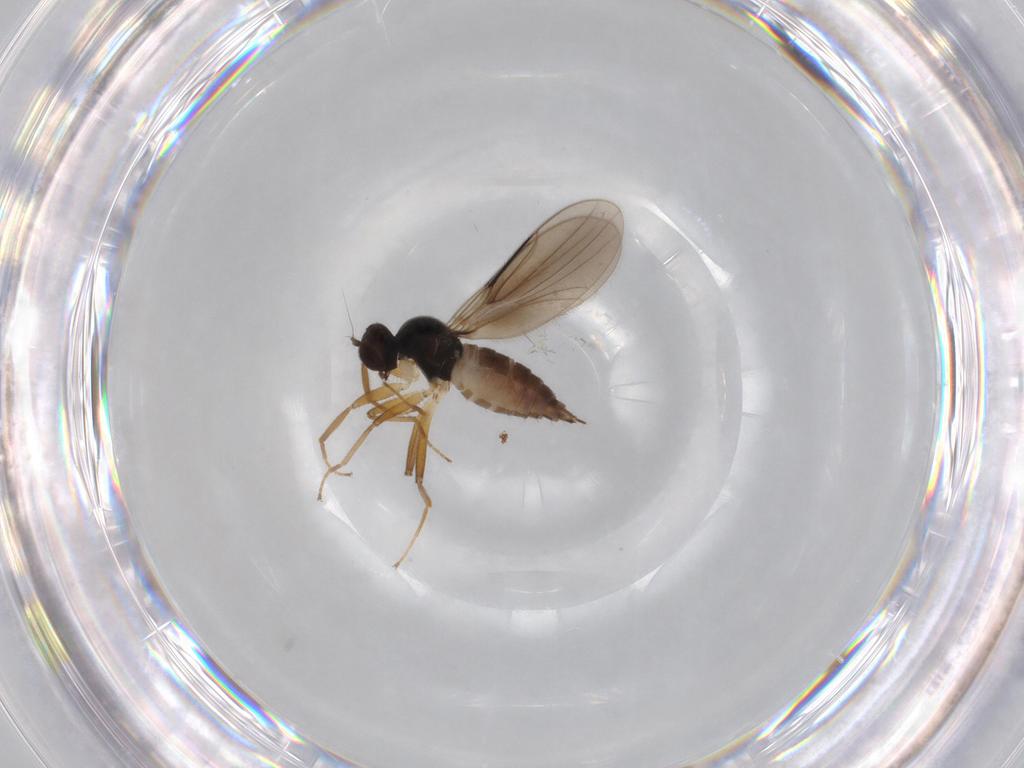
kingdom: Animalia
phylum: Arthropoda
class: Insecta
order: Diptera
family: Hybotidae
